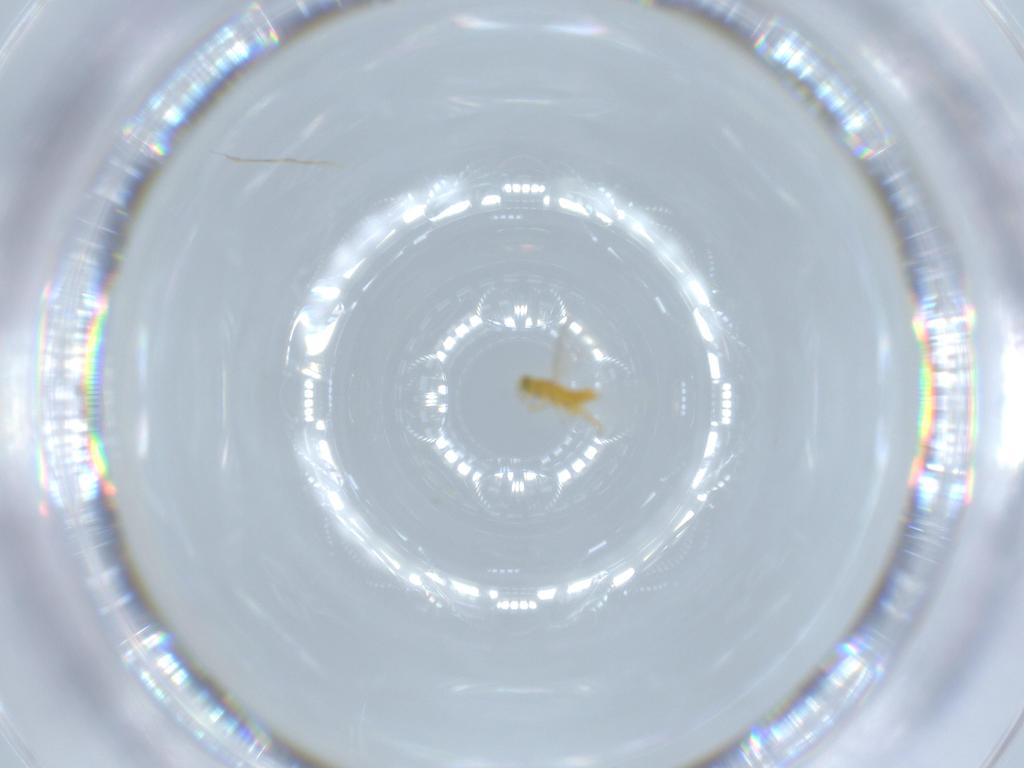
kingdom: Animalia
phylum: Arthropoda
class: Insecta
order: Hymenoptera
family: Aphelinidae
